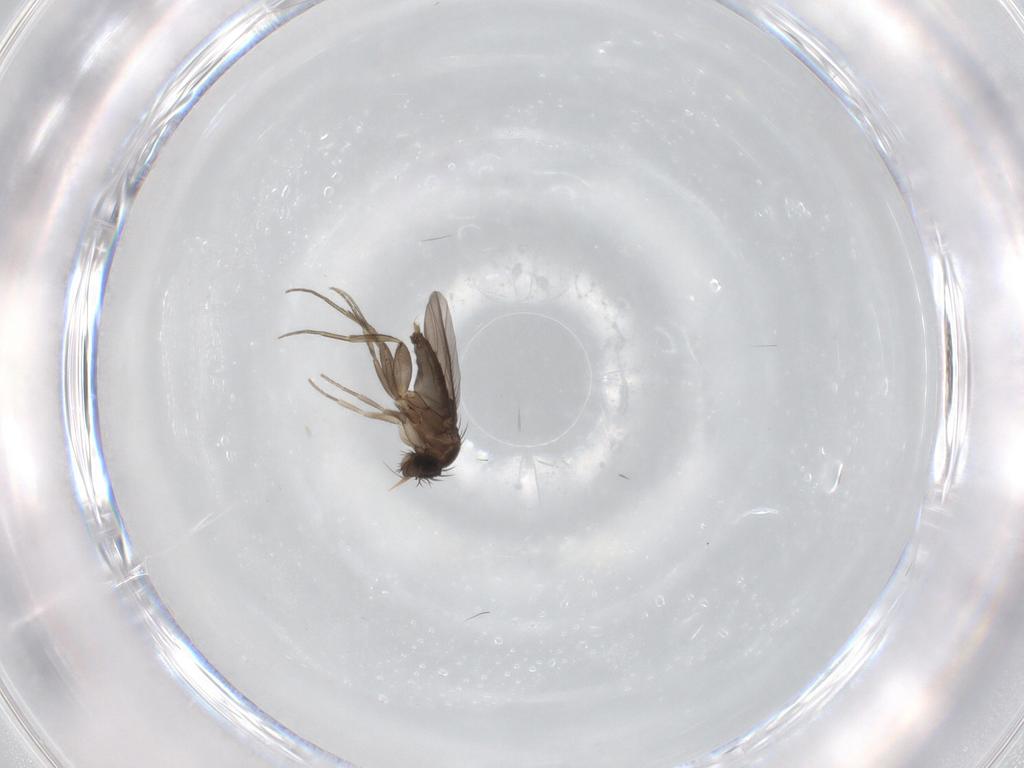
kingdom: Animalia
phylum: Arthropoda
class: Insecta
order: Diptera
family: Phoridae
